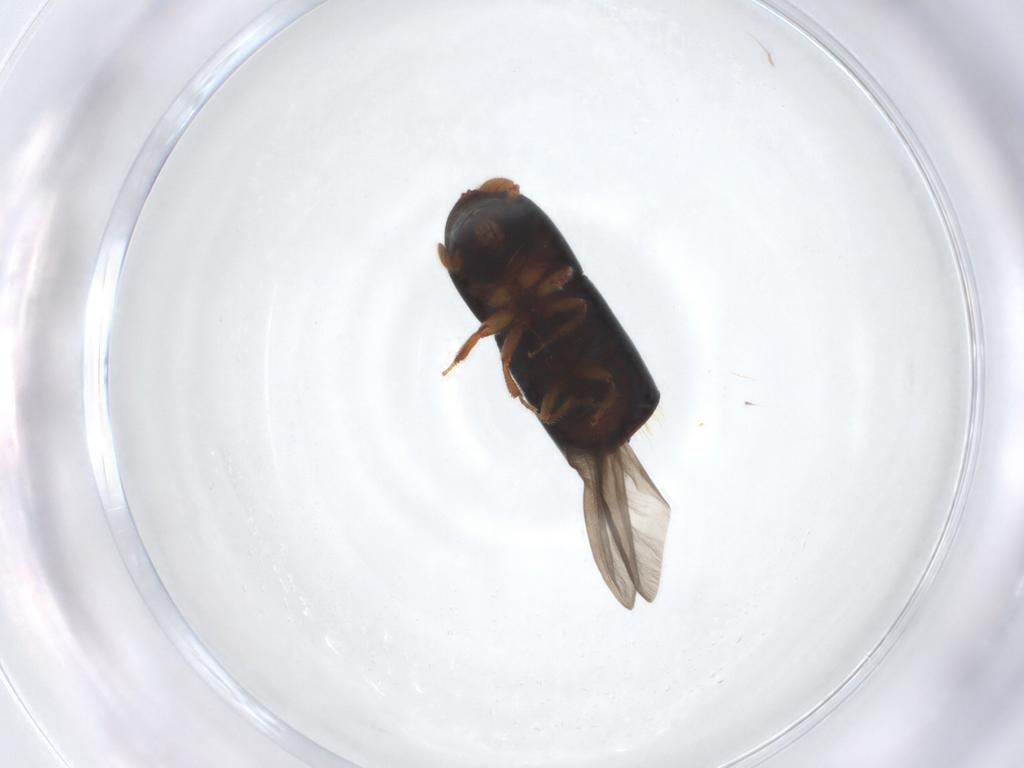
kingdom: Animalia
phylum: Arthropoda
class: Insecta
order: Coleoptera
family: Curculionidae
